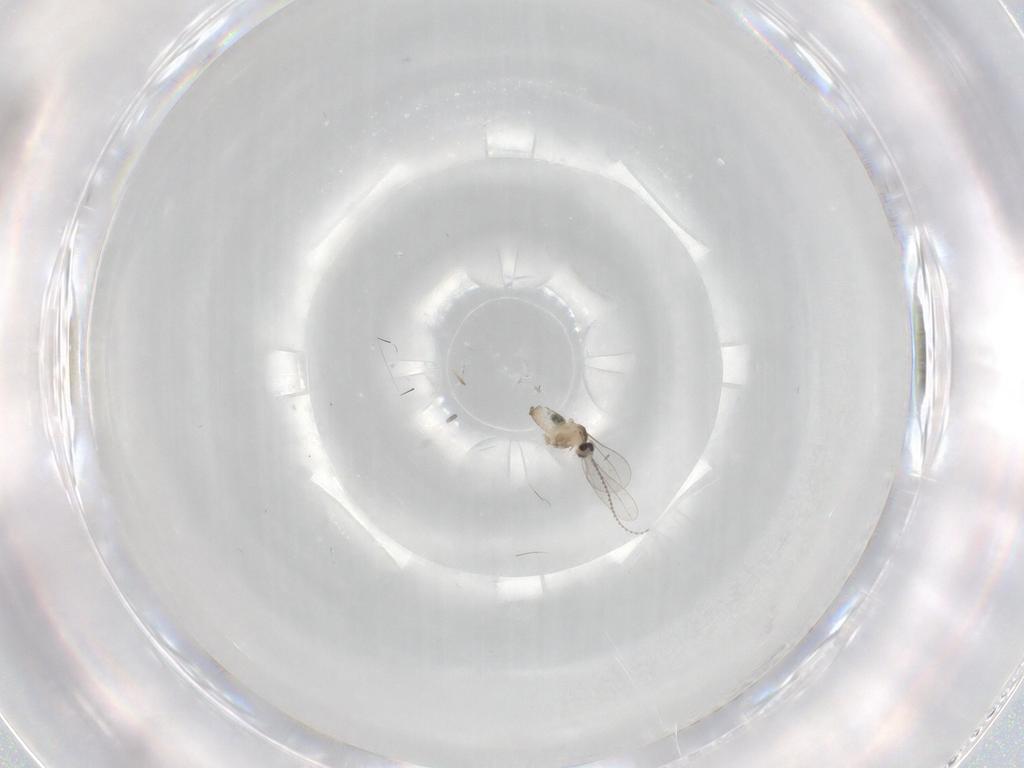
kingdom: Animalia
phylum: Arthropoda
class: Insecta
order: Diptera
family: Cecidomyiidae
